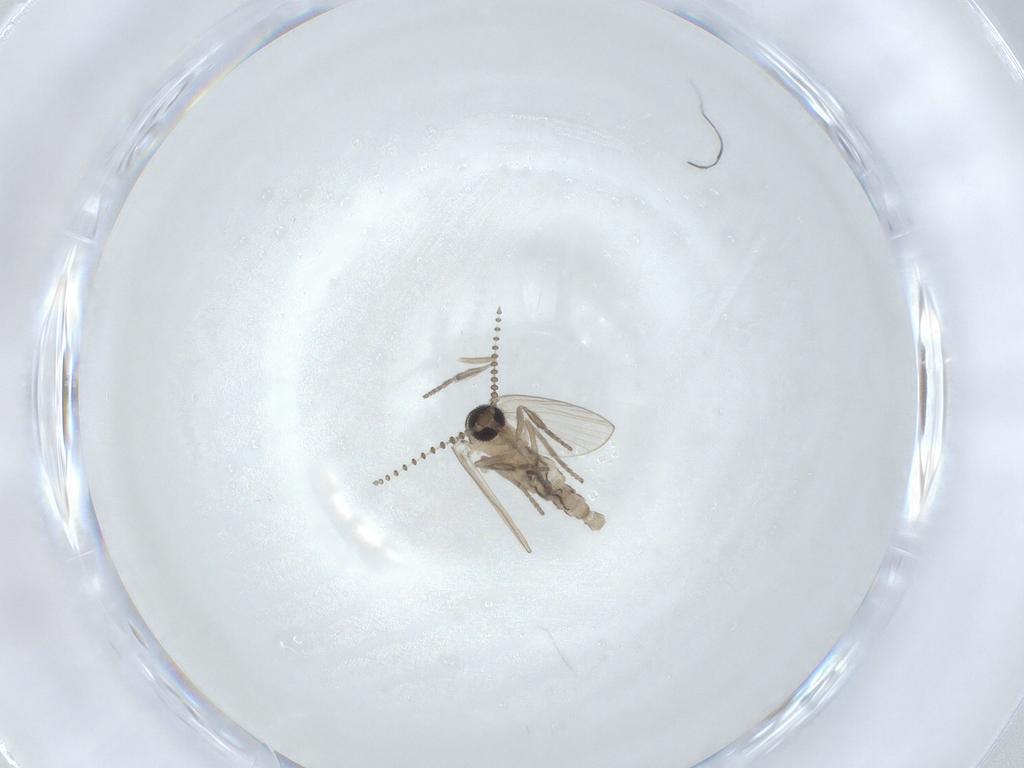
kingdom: Animalia
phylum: Arthropoda
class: Insecta
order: Diptera
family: Psychodidae
